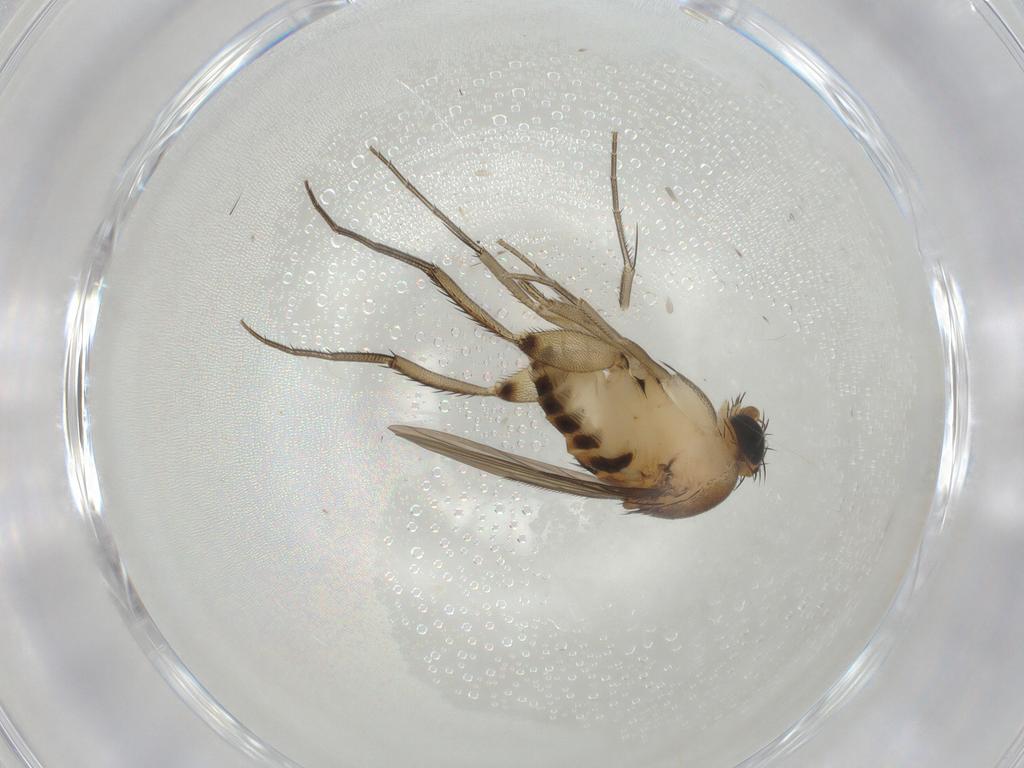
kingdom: Animalia
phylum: Arthropoda
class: Insecta
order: Diptera
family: Phoridae
